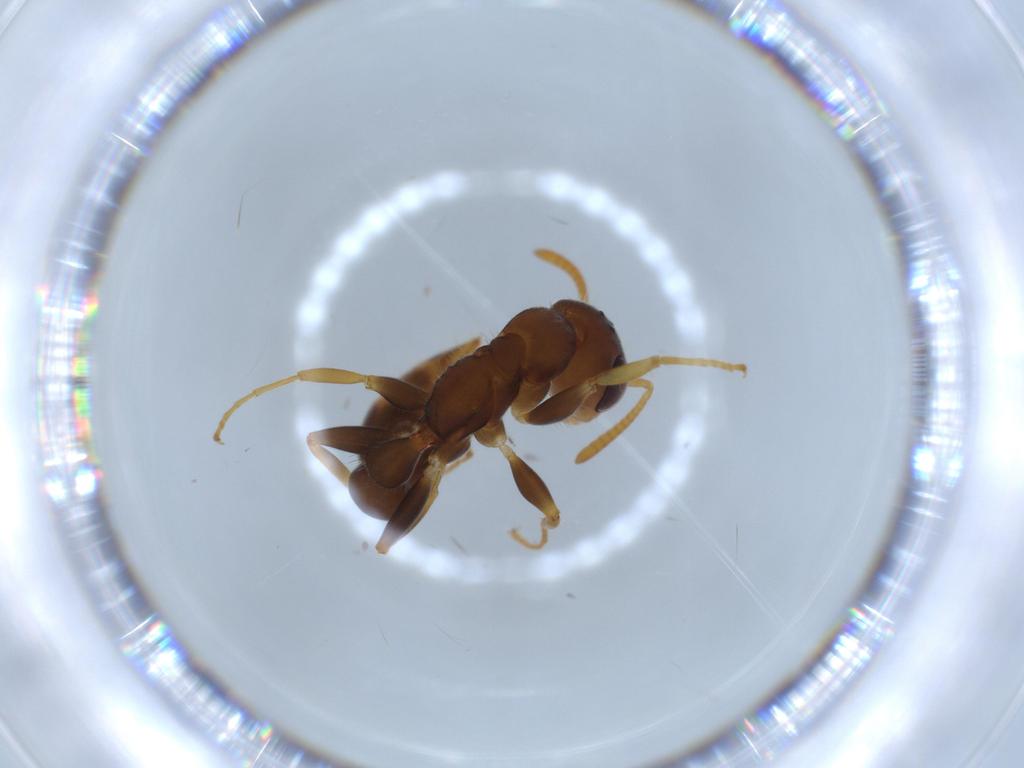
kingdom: Animalia
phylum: Arthropoda
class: Insecta
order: Hymenoptera
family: Formicidae
